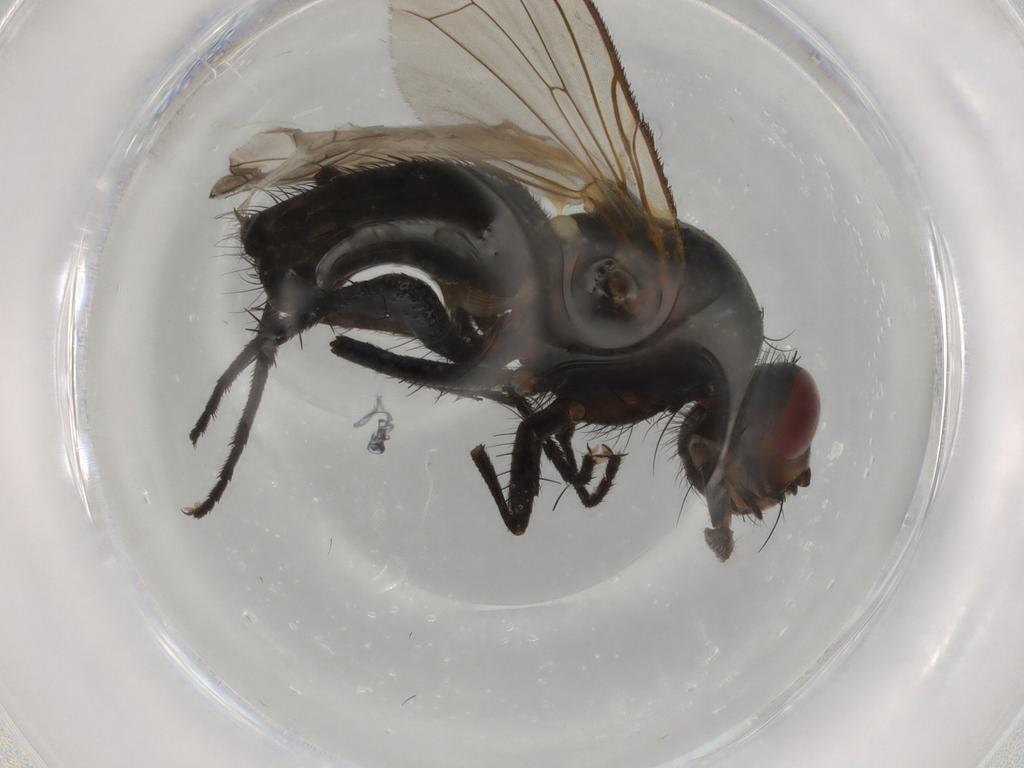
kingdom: Animalia
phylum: Arthropoda
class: Insecta
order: Diptera
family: Anthomyiidae
